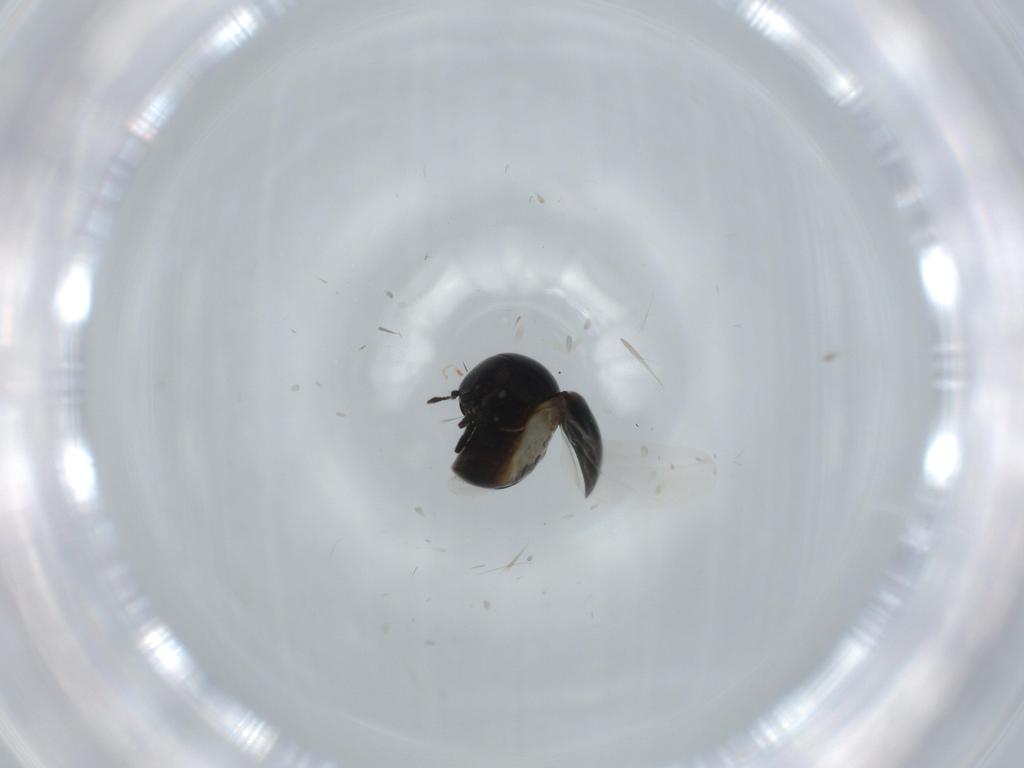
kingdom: Animalia
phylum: Arthropoda
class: Insecta
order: Coleoptera
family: Cybocephalidae
